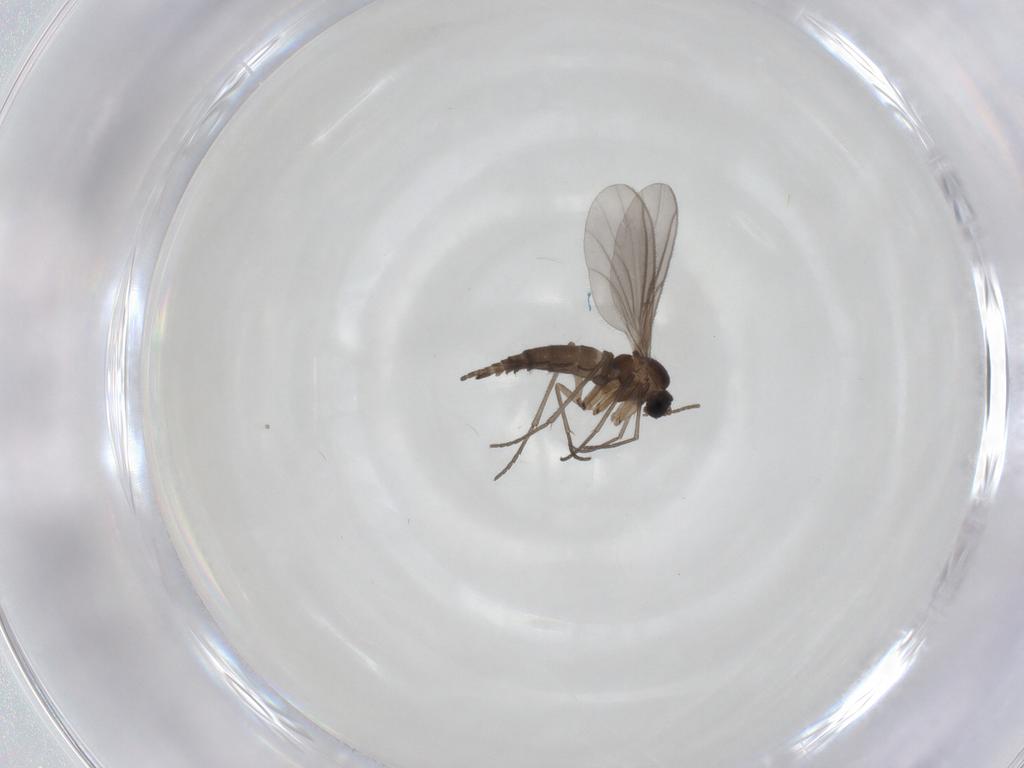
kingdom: Animalia
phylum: Arthropoda
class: Insecta
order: Diptera
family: Sciaridae
